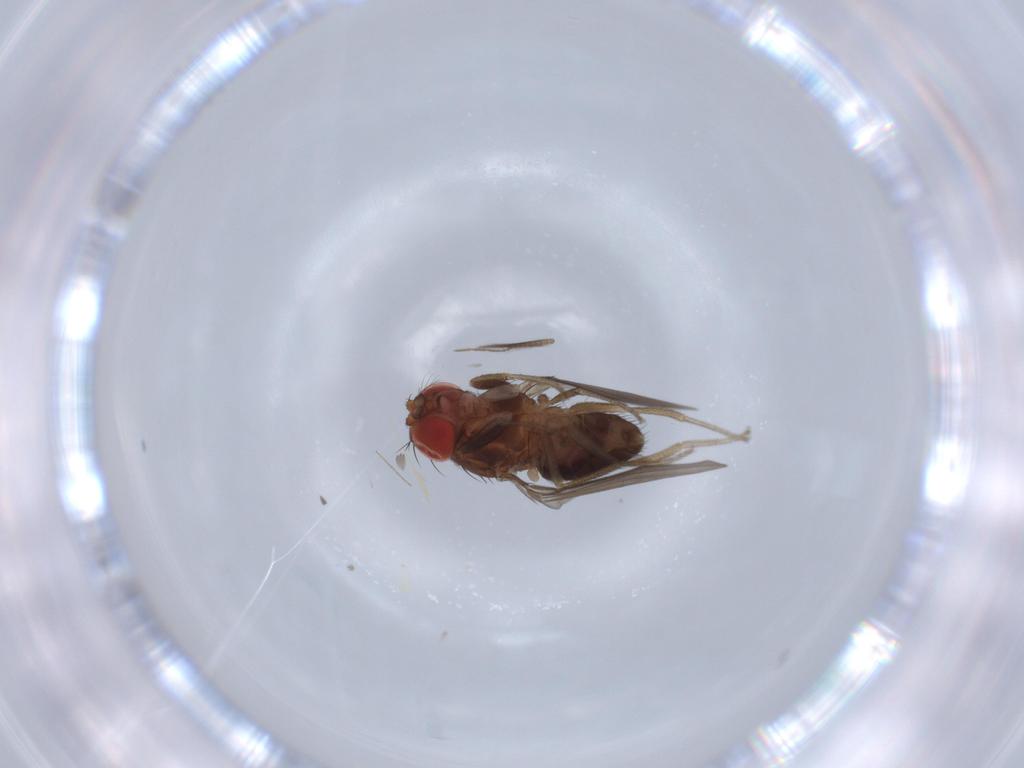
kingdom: Animalia
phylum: Arthropoda
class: Insecta
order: Diptera
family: Drosophilidae
